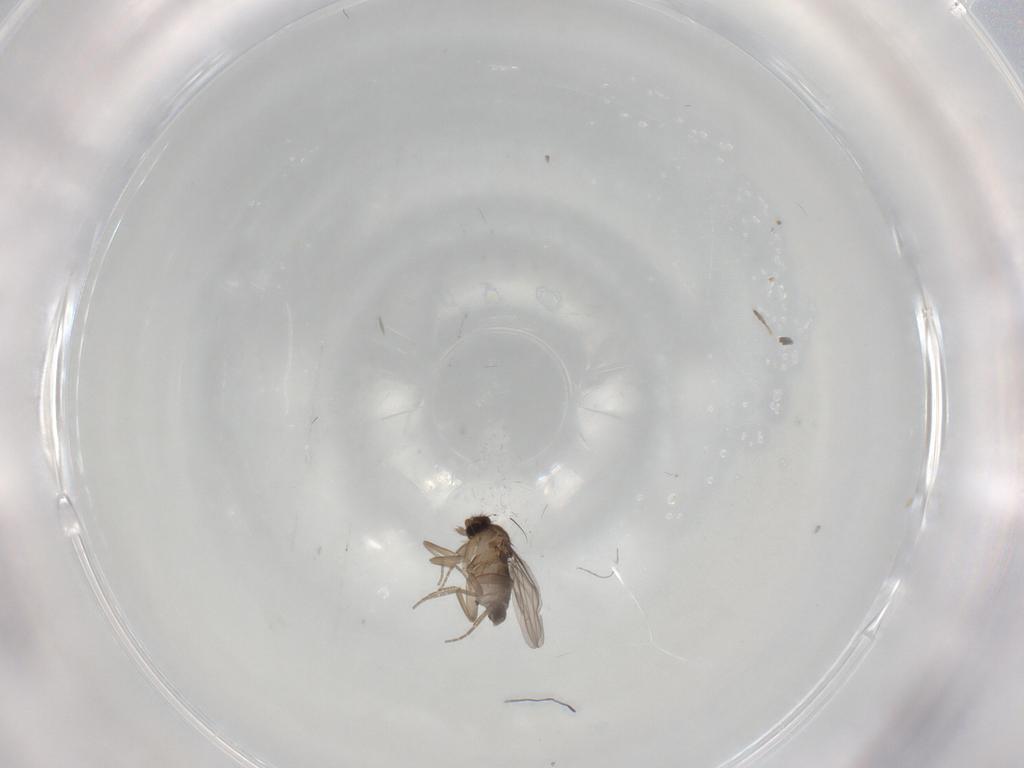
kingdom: Animalia
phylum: Arthropoda
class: Insecta
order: Diptera
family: Phoridae
